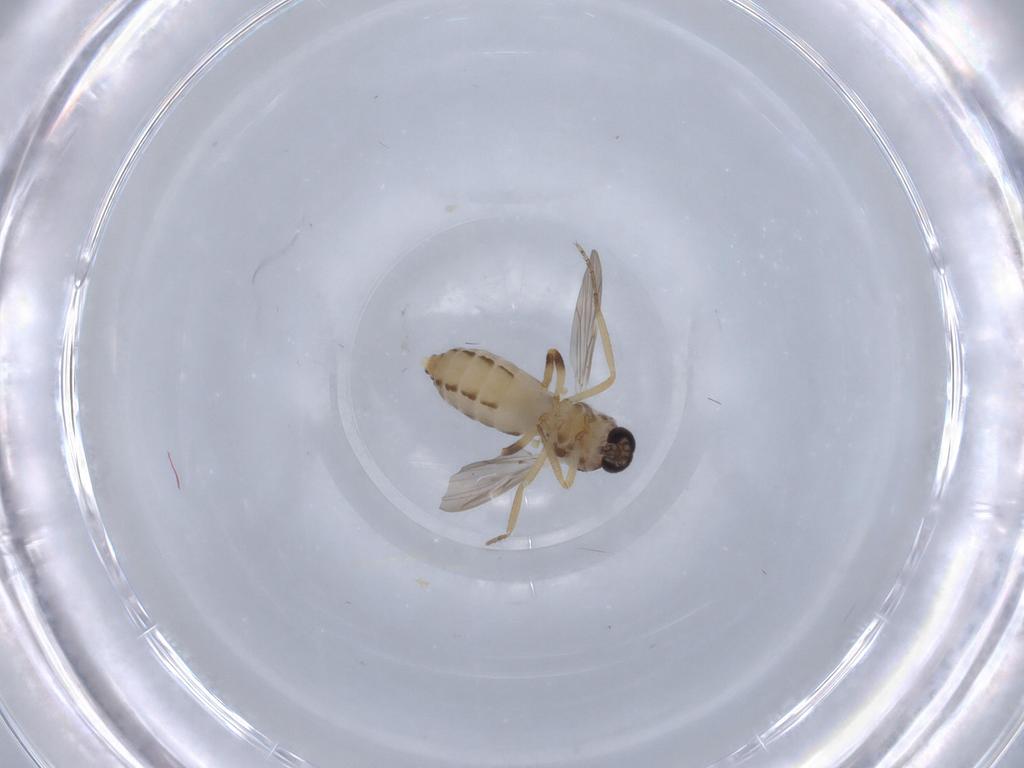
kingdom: Animalia
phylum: Arthropoda
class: Insecta
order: Diptera
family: Ceratopogonidae
